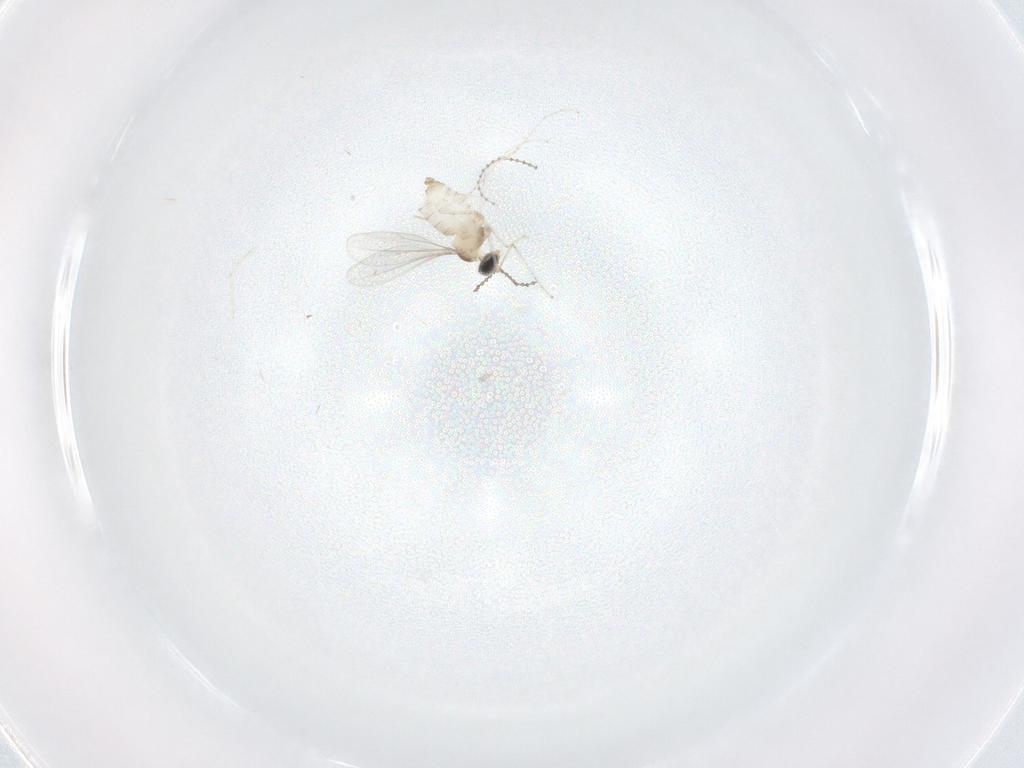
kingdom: Animalia
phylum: Arthropoda
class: Insecta
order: Diptera
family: Cecidomyiidae
